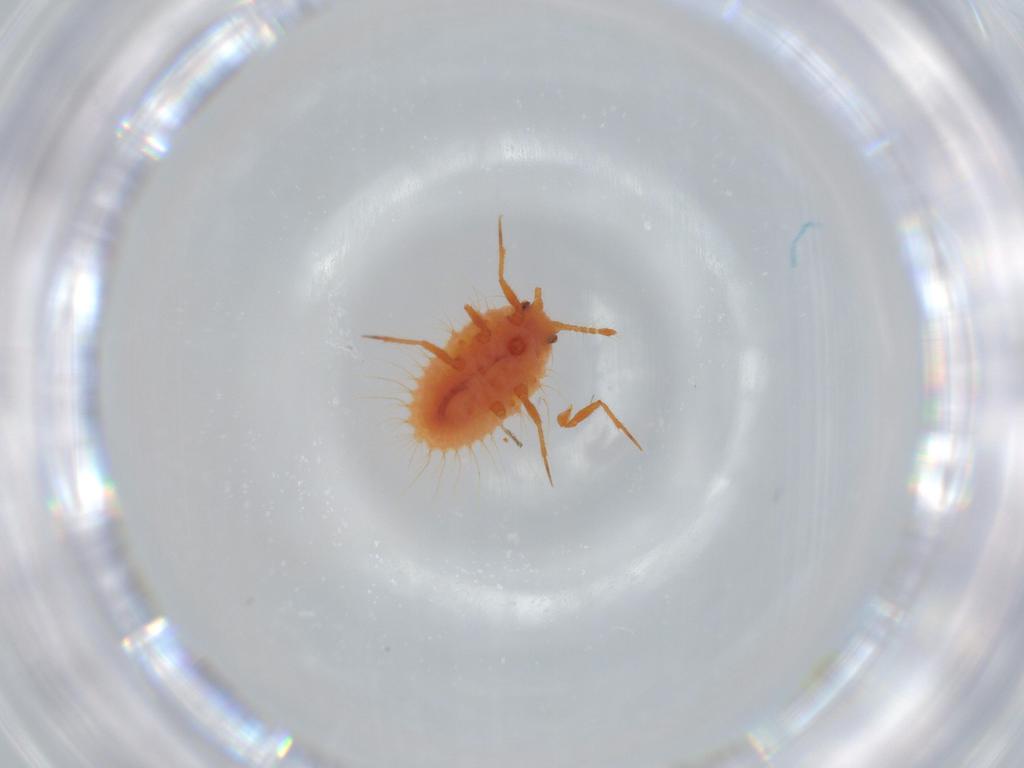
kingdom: Animalia
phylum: Arthropoda
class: Insecta
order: Hemiptera
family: Coccoidea_incertae_sedis
